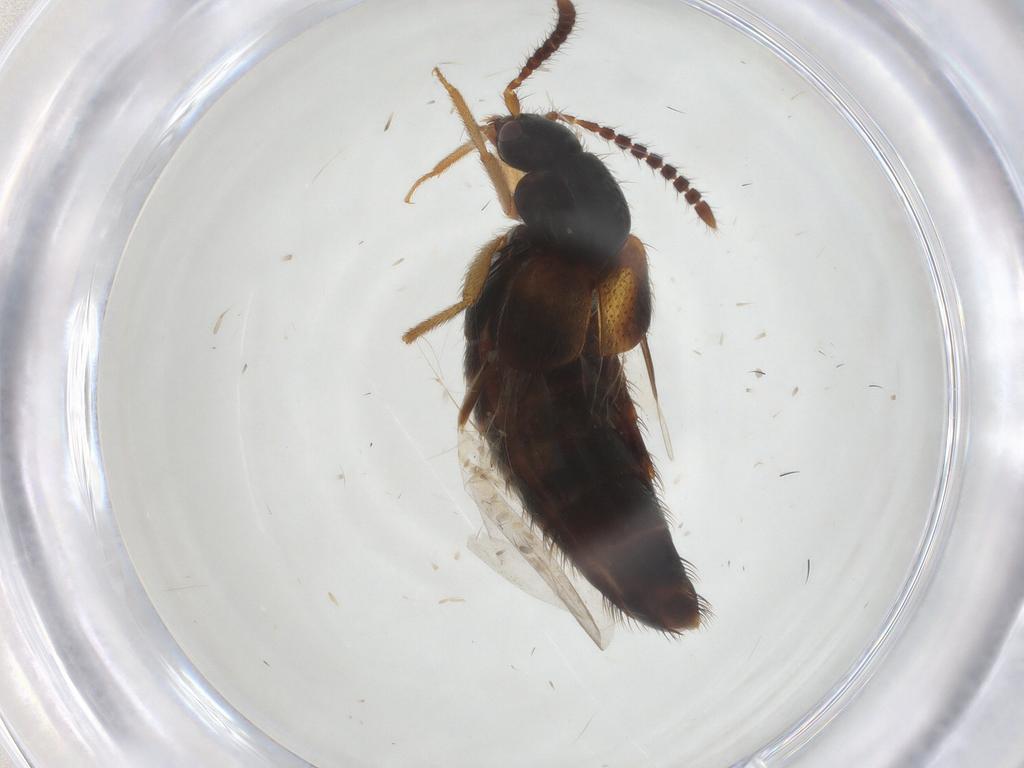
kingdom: Animalia
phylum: Arthropoda
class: Insecta
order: Coleoptera
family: Staphylinidae
